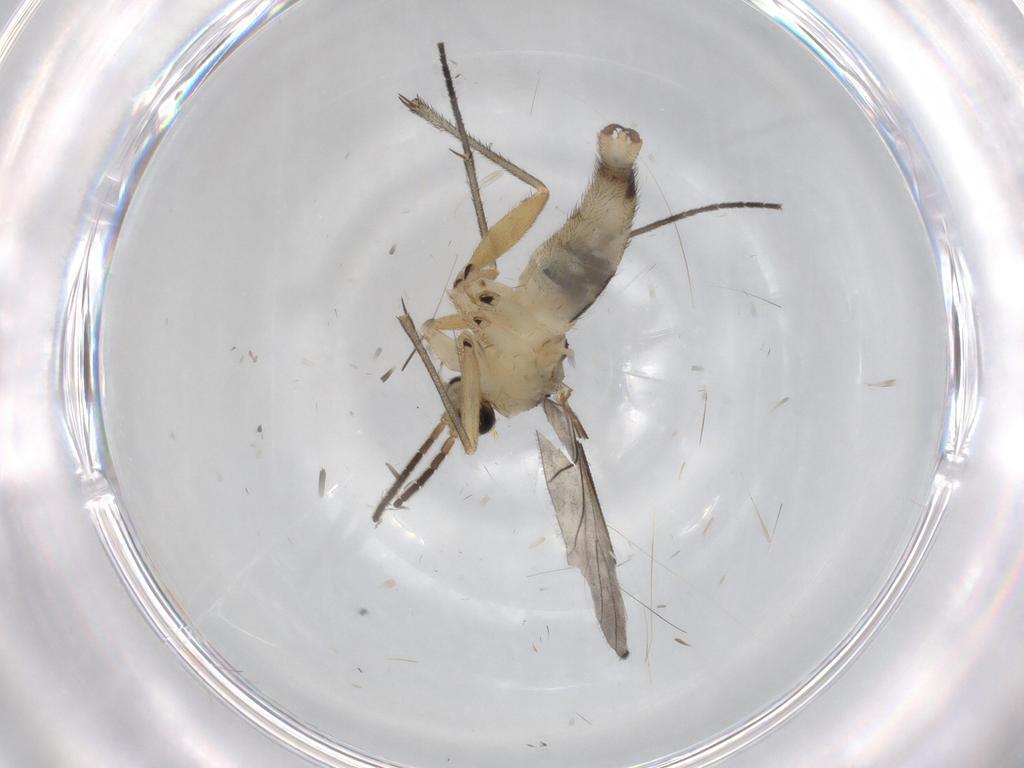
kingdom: Animalia
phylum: Arthropoda
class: Insecta
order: Diptera
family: Sciaridae
